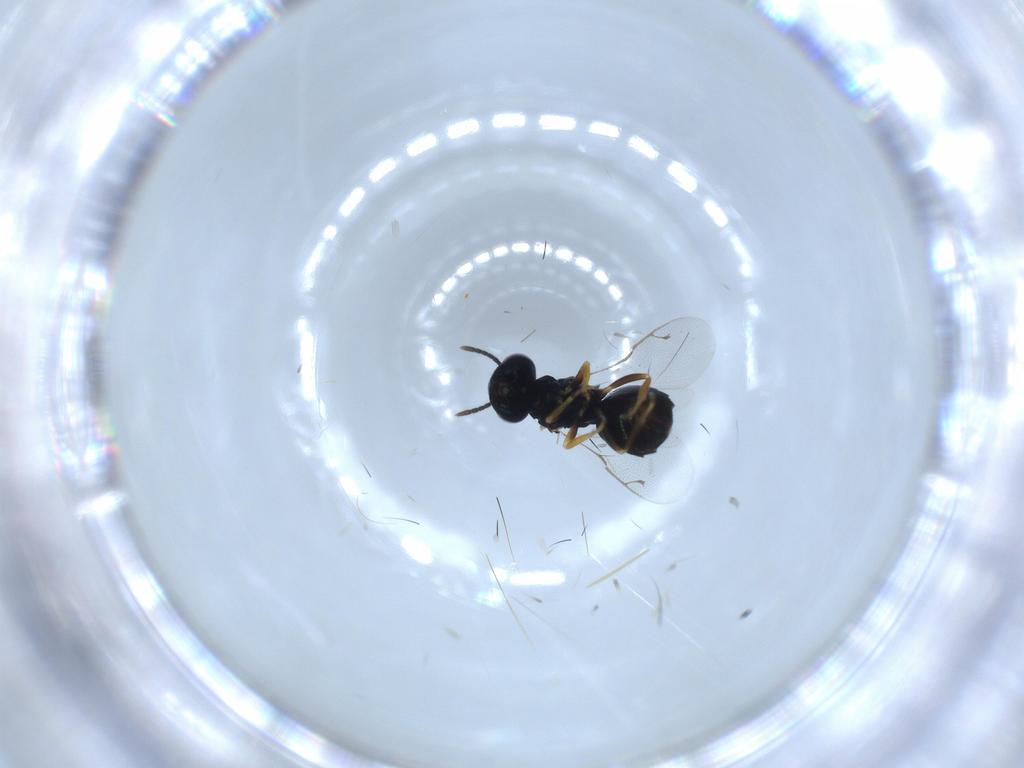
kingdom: Animalia
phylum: Arthropoda
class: Insecta
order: Hymenoptera
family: Pteromalidae
